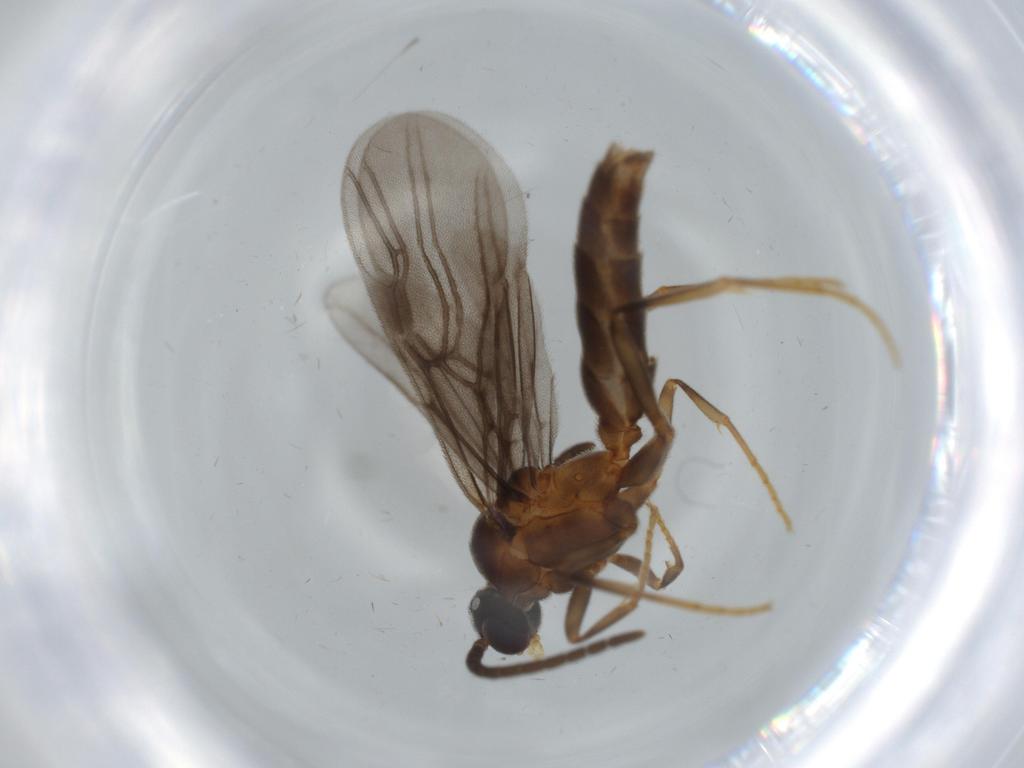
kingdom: Animalia
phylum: Arthropoda
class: Insecta
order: Hymenoptera
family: Formicidae
